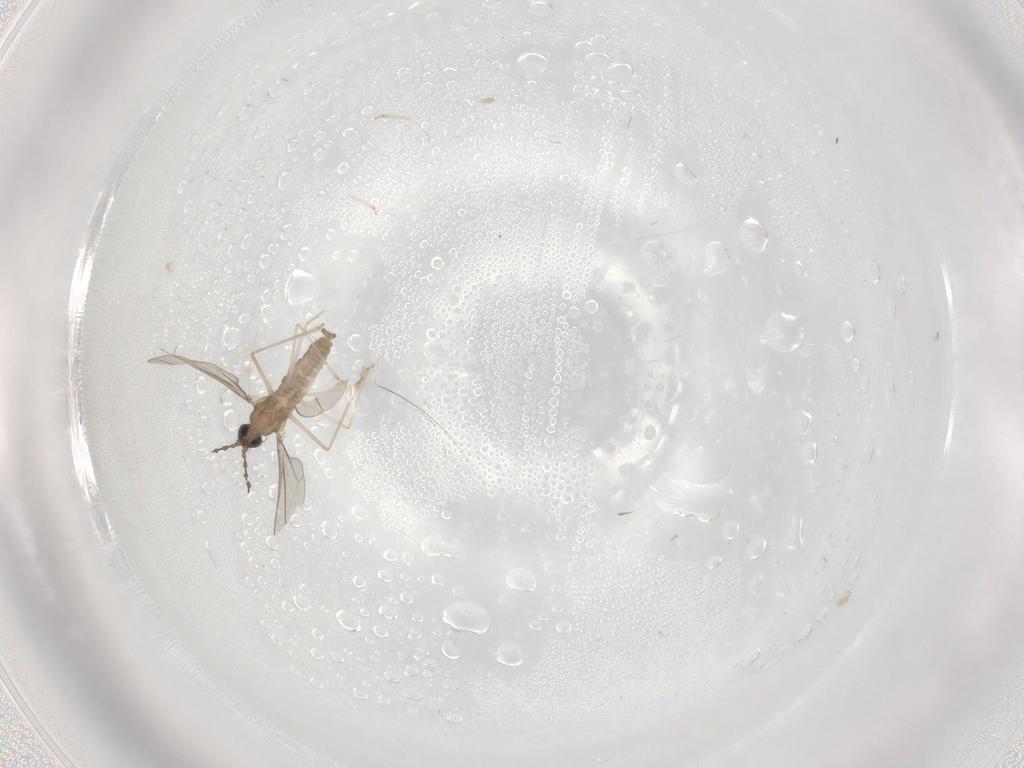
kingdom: Animalia
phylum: Arthropoda
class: Insecta
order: Diptera
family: Cecidomyiidae
